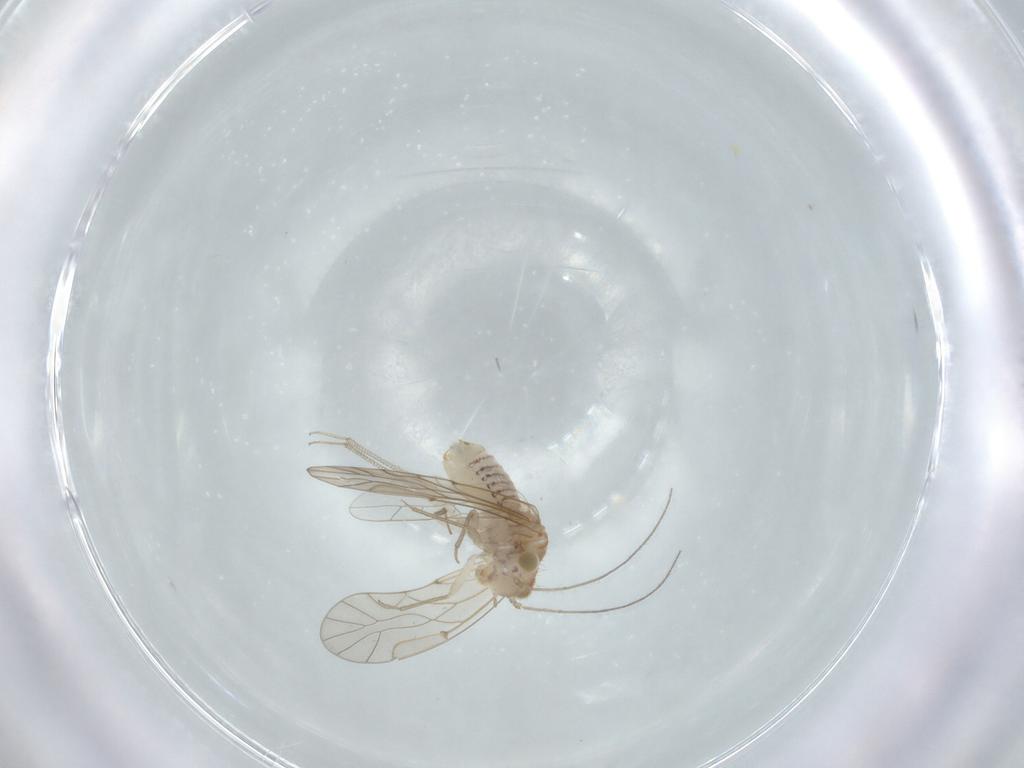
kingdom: Animalia
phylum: Arthropoda
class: Insecta
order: Psocodea
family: Lachesillidae
